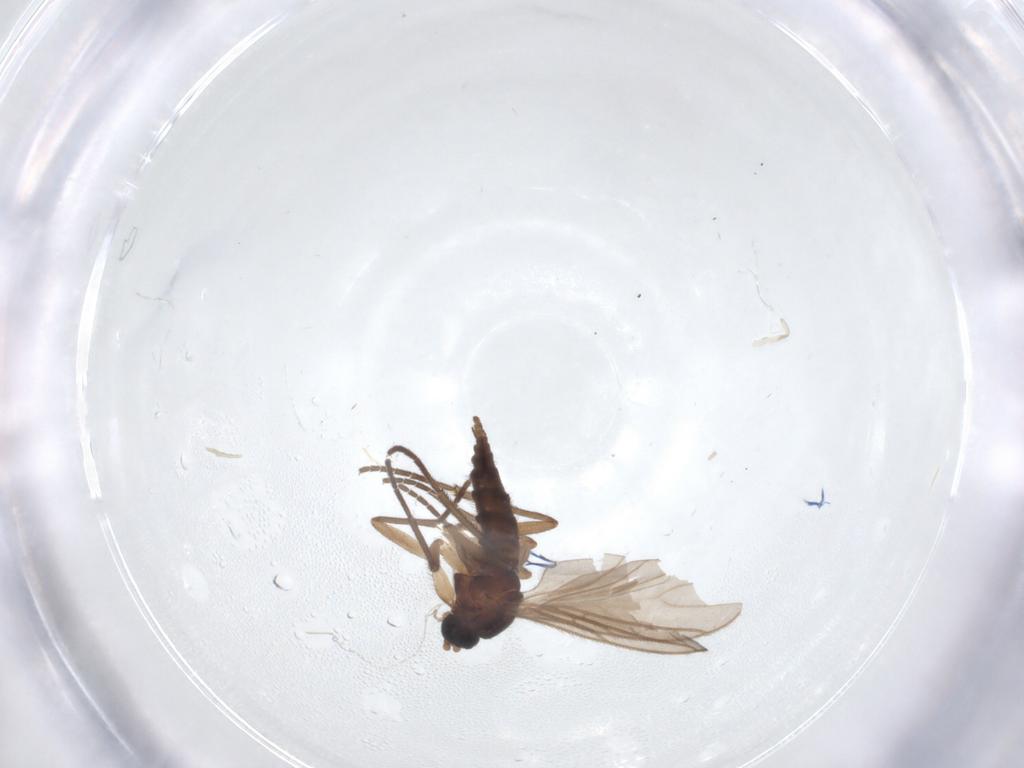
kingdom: Animalia
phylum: Arthropoda
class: Insecta
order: Diptera
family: Sciaridae
